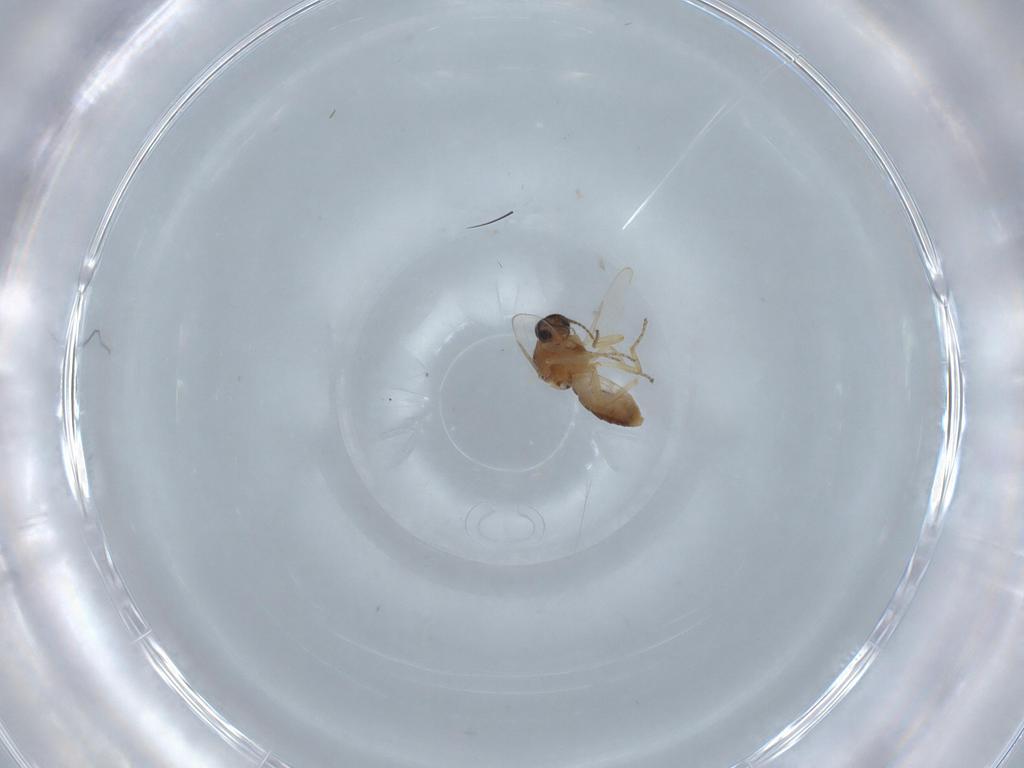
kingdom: Animalia
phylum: Arthropoda
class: Insecta
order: Diptera
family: Ceratopogonidae
